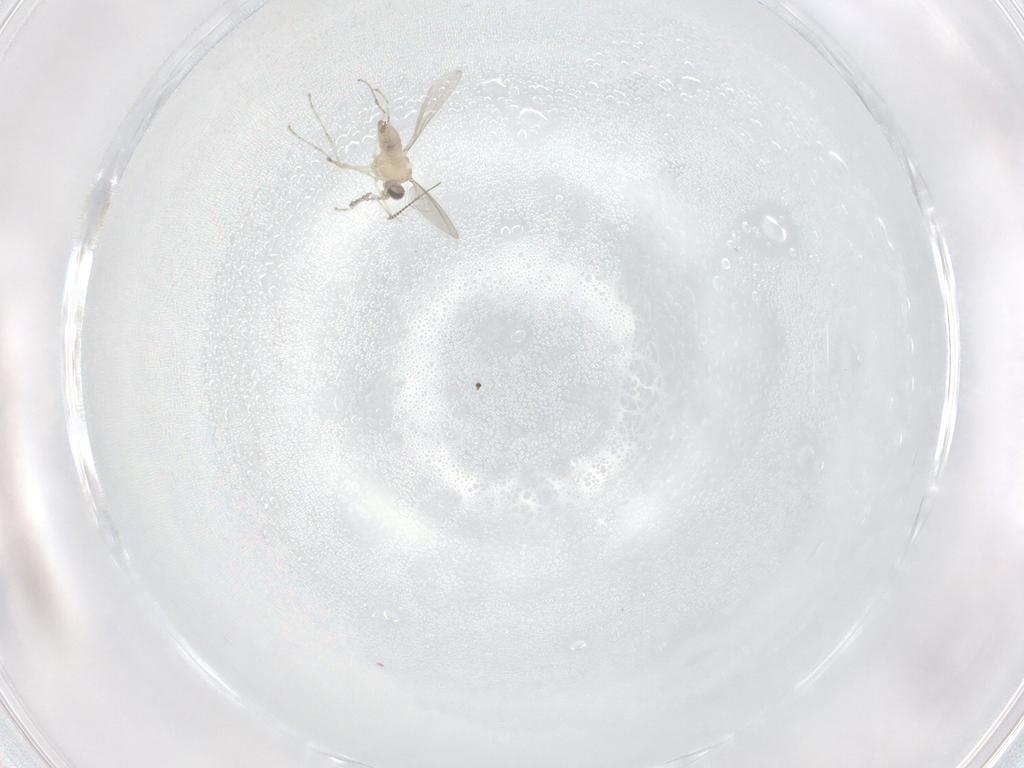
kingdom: Animalia
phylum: Arthropoda
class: Insecta
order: Diptera
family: Chironomidae
